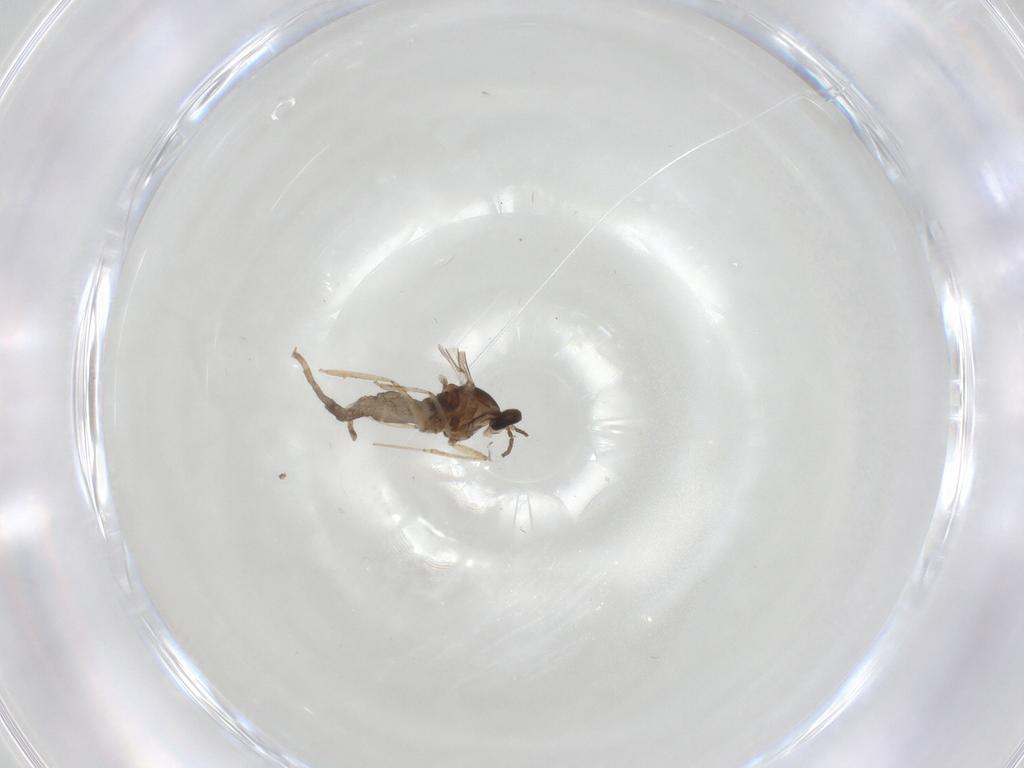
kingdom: Animalia
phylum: Arthropoda
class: Insecta
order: Diptera
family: Cecidomyiidae
